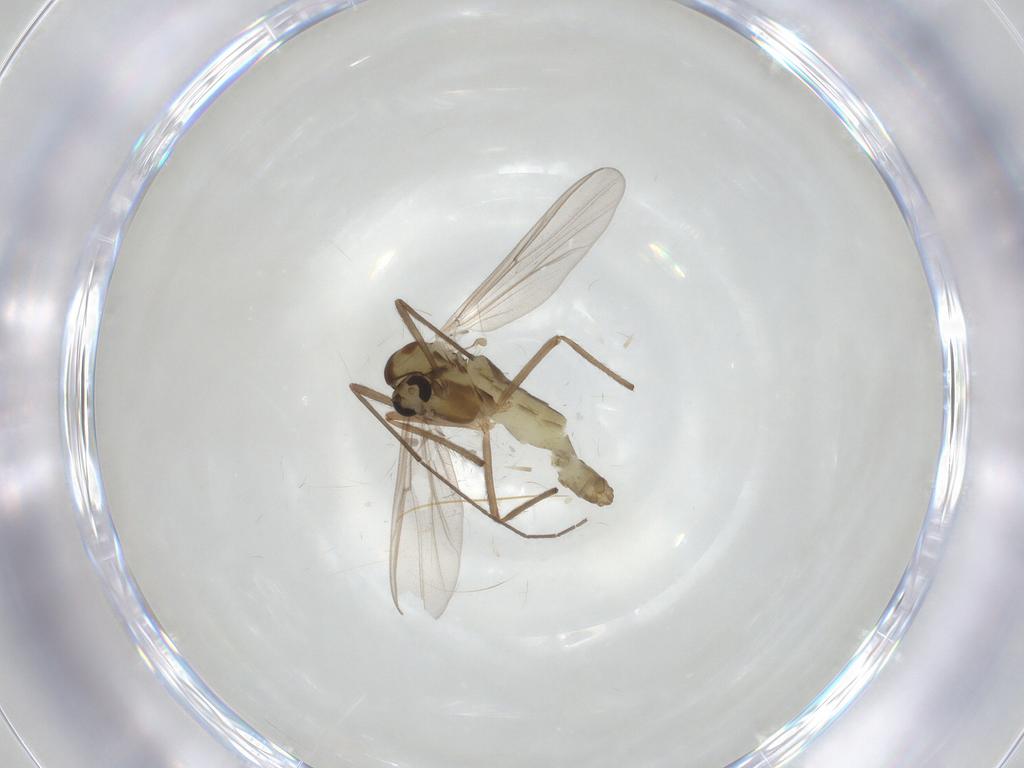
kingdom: Animalia
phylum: Arthropoda
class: Insecta
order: Diptera
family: Chironomidae
